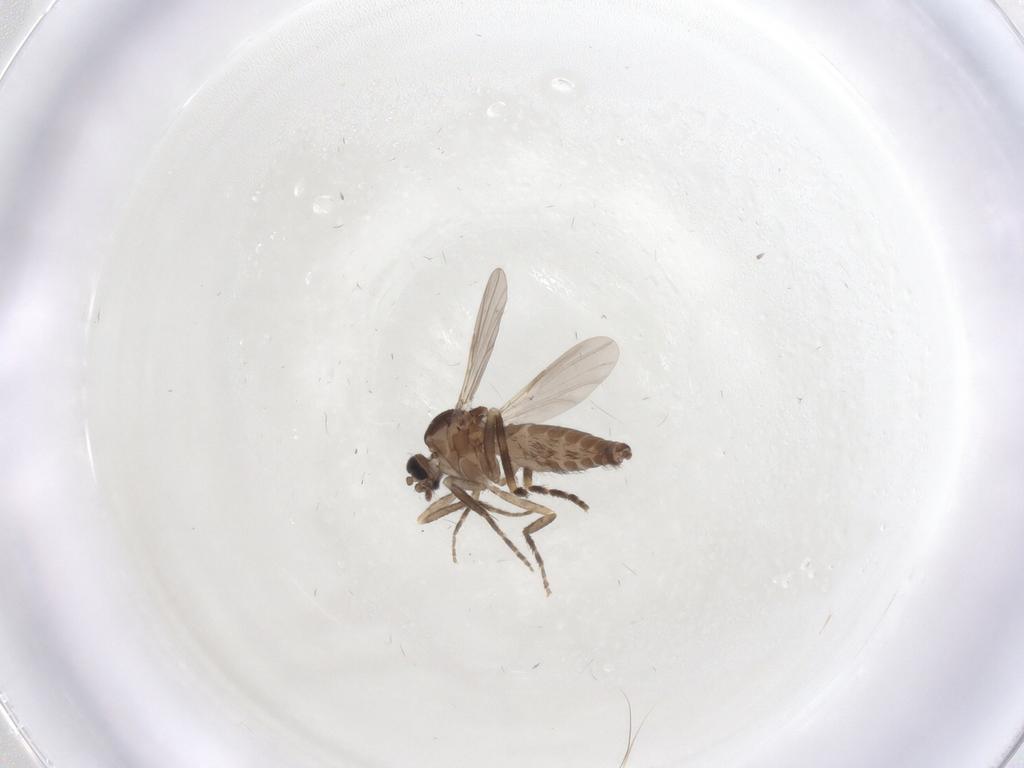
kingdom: Animalia
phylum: Arthropoda
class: Insecta
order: Diptera
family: Ceratopogonidae
